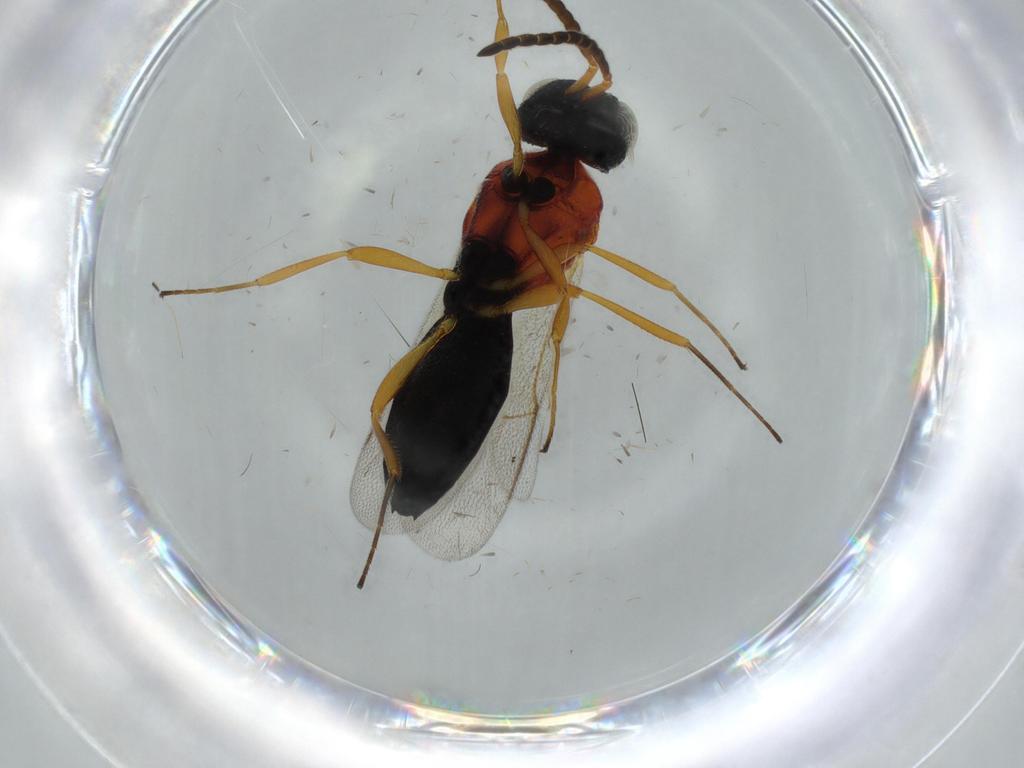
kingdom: Animalia
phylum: Arthropoda
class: Insecta
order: Hymenoptera
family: Scelionidae
